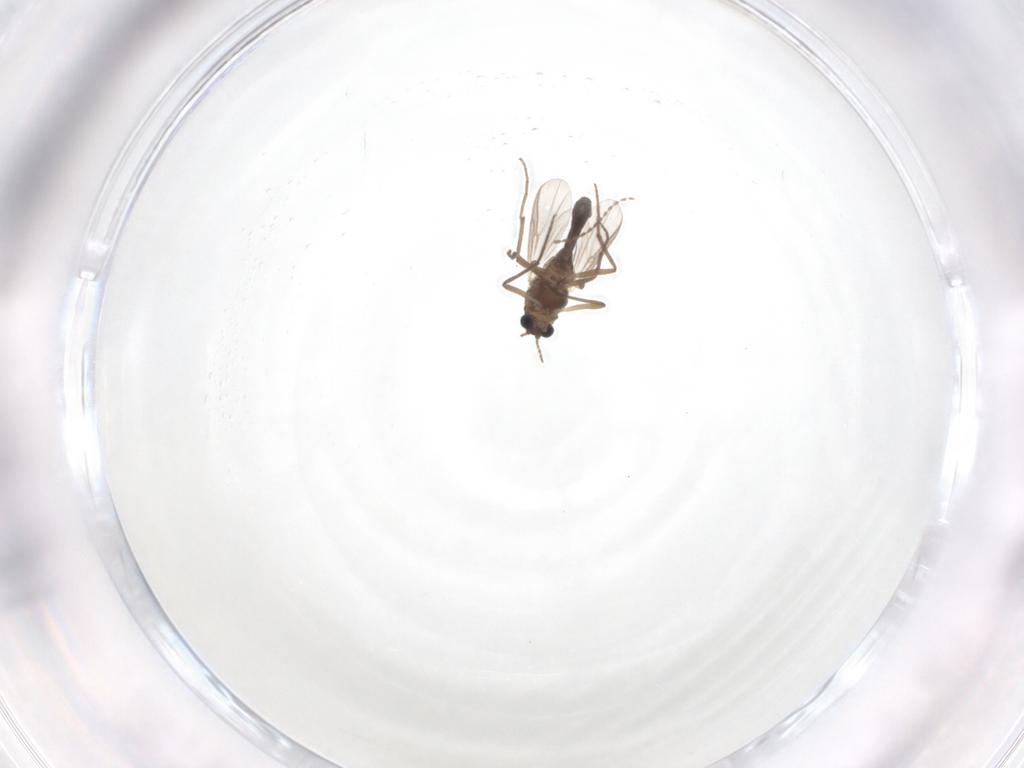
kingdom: Animalia
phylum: Arthropoda
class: Insecta
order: Diptera
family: Chironomidae
